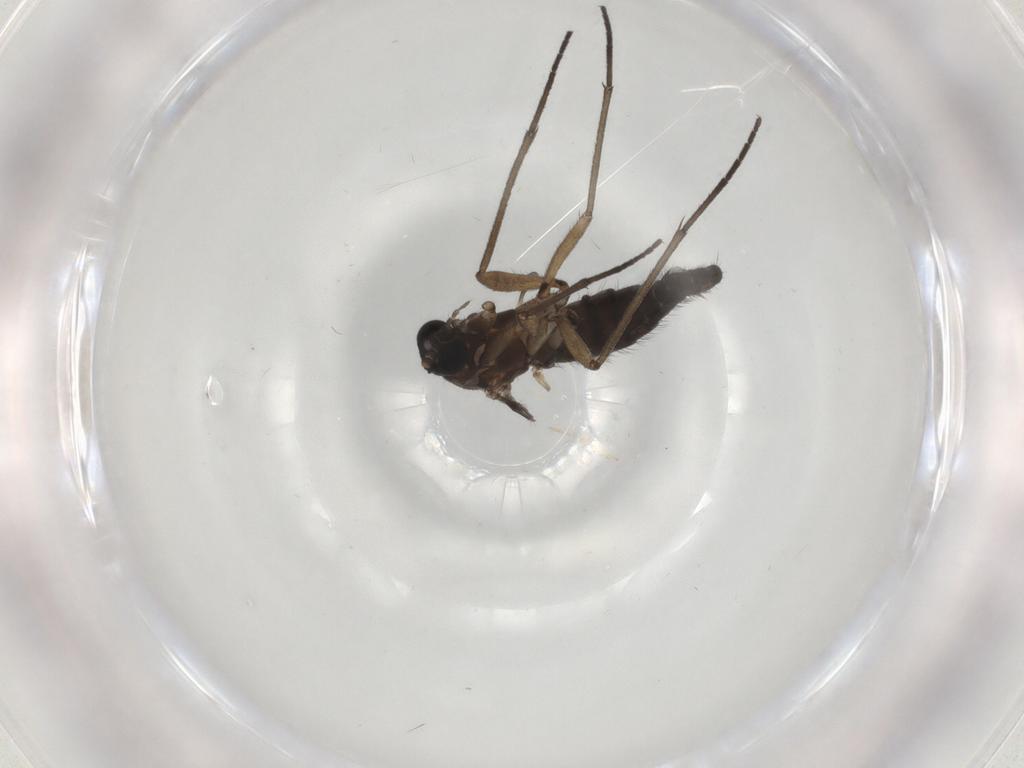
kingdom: Animalia
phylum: Arthropoda
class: Insecta
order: Diptera
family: Sciaridae
